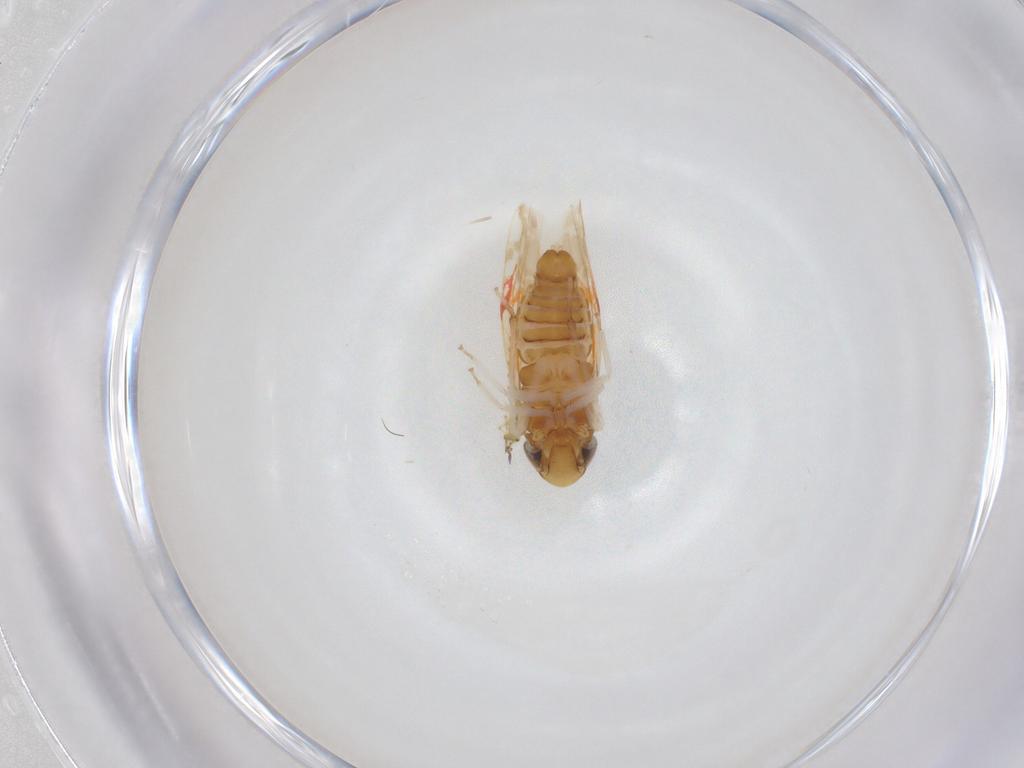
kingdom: Animalia
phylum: Arthropoda
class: Insecta
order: Hemiptera
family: Cicadellidae
